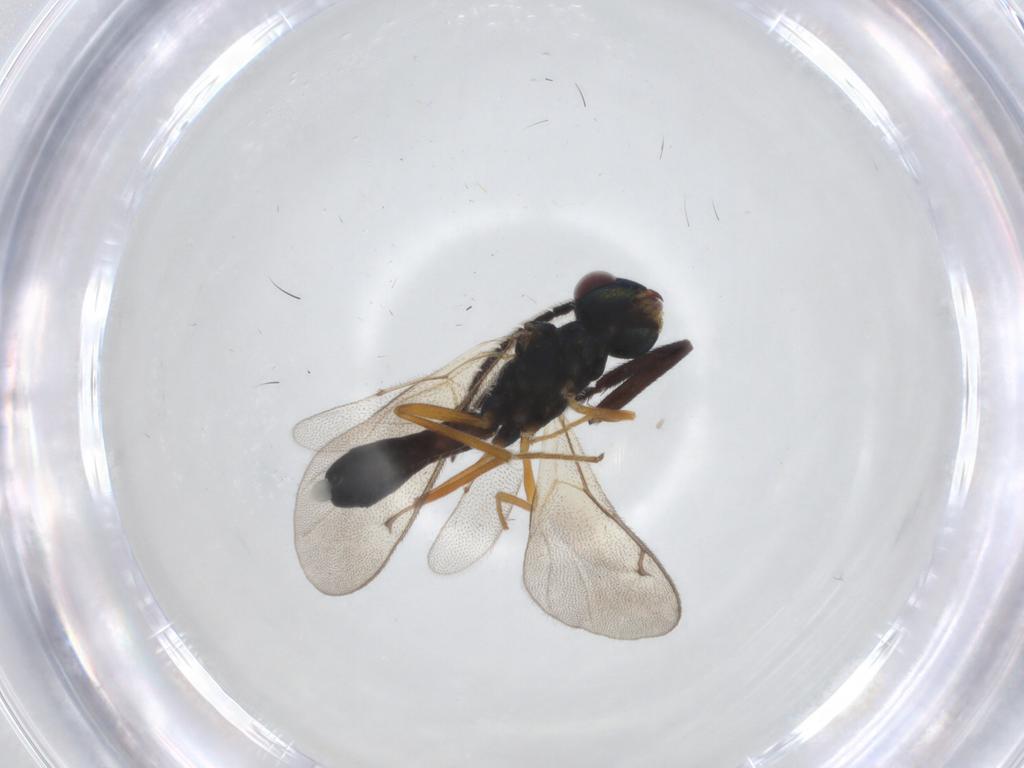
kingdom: Animalia
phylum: Arthropoda
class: Insecta
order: Hymenoptera
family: Pteromalidae
